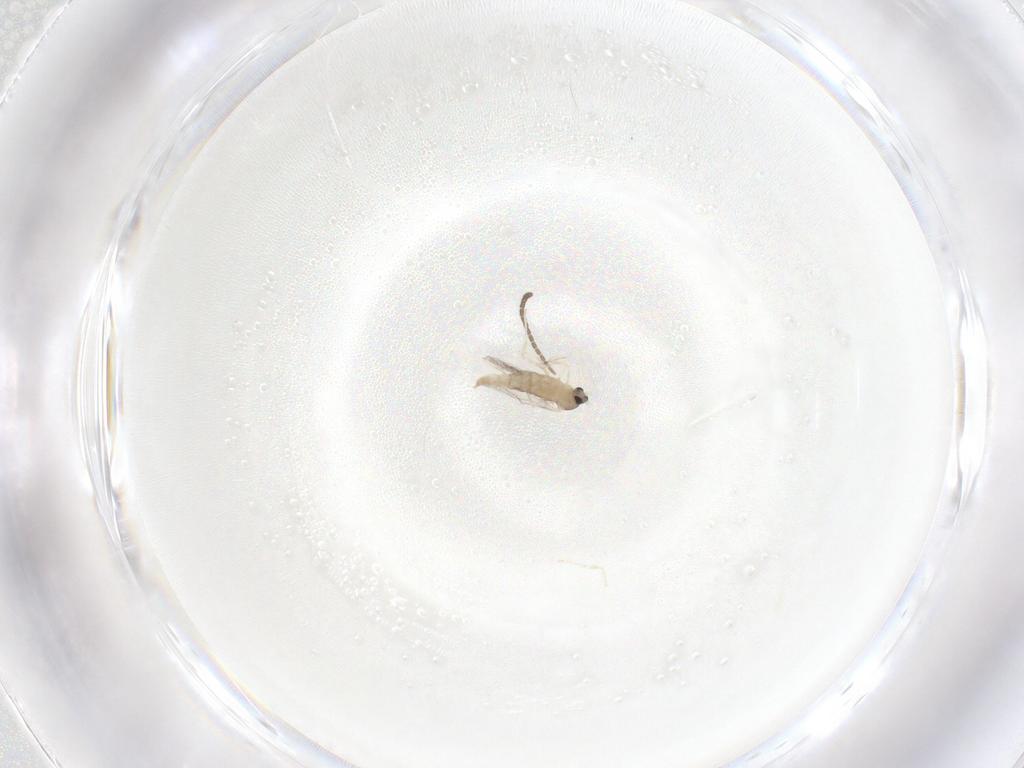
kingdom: Animalia
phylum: Arthropoda
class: Insecta
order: Diptera
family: Cecidomyiidae
